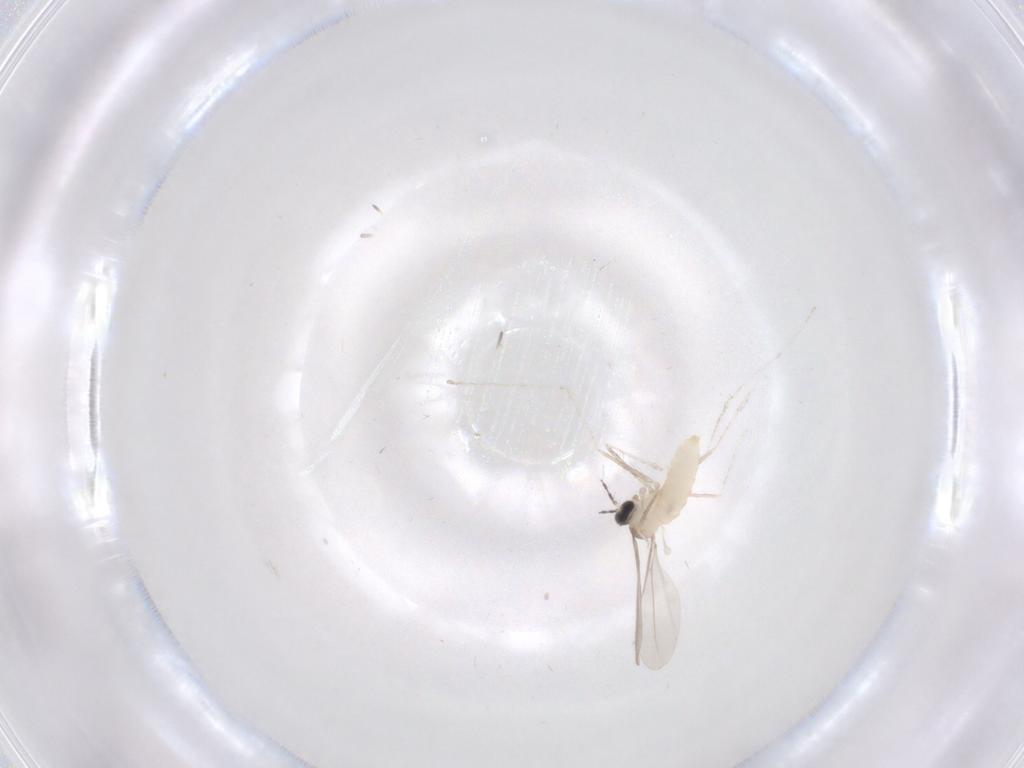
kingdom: Animalia
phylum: Arthropoda
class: Insecta
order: Diptera
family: Cecidomyiidae
